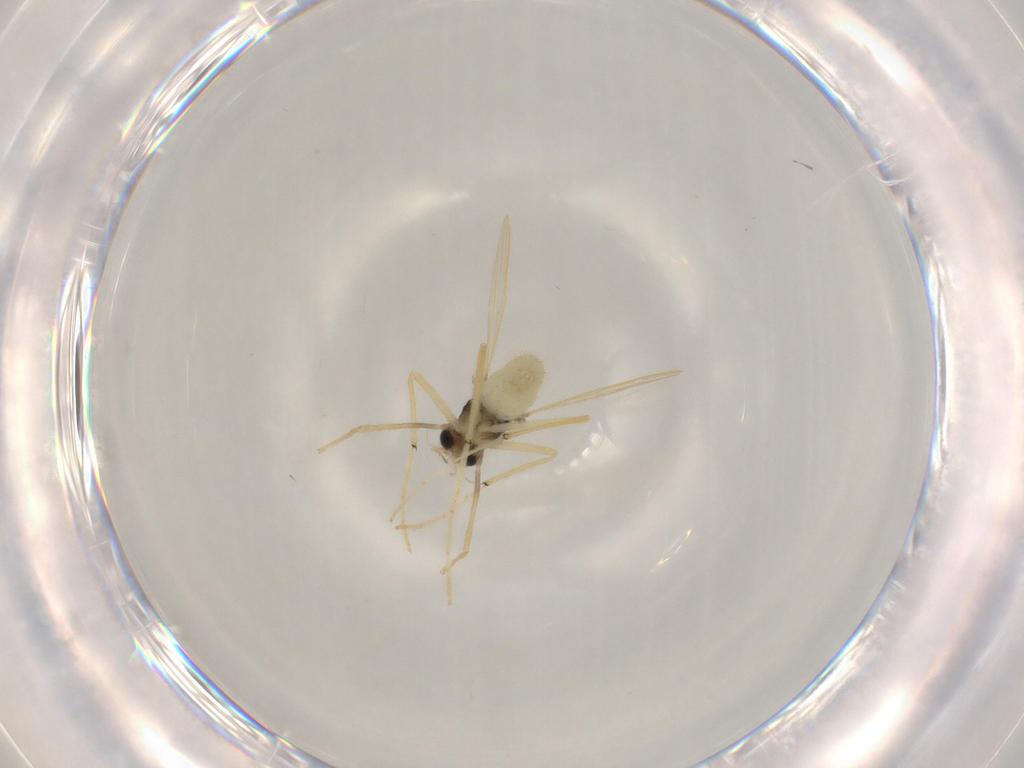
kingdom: Animalia
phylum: Arthropoda
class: Insecta
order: Diptera
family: Chironomidae
